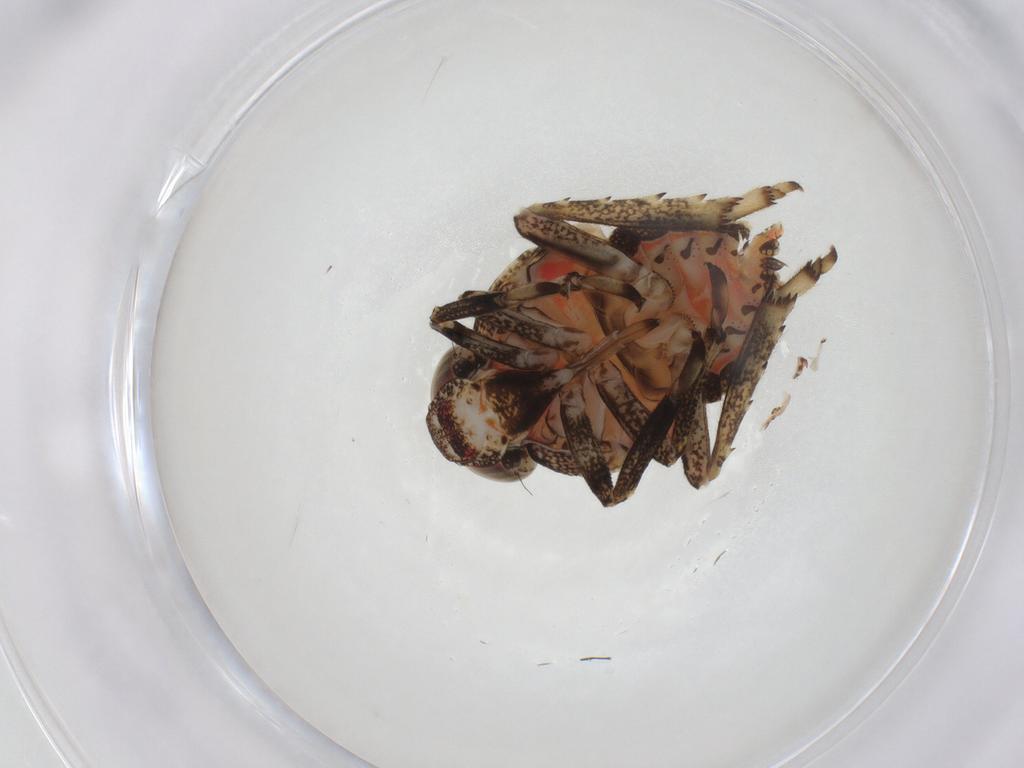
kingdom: Animalia
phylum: Arthropoda
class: Insecta
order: Hemiptera
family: Issidae
